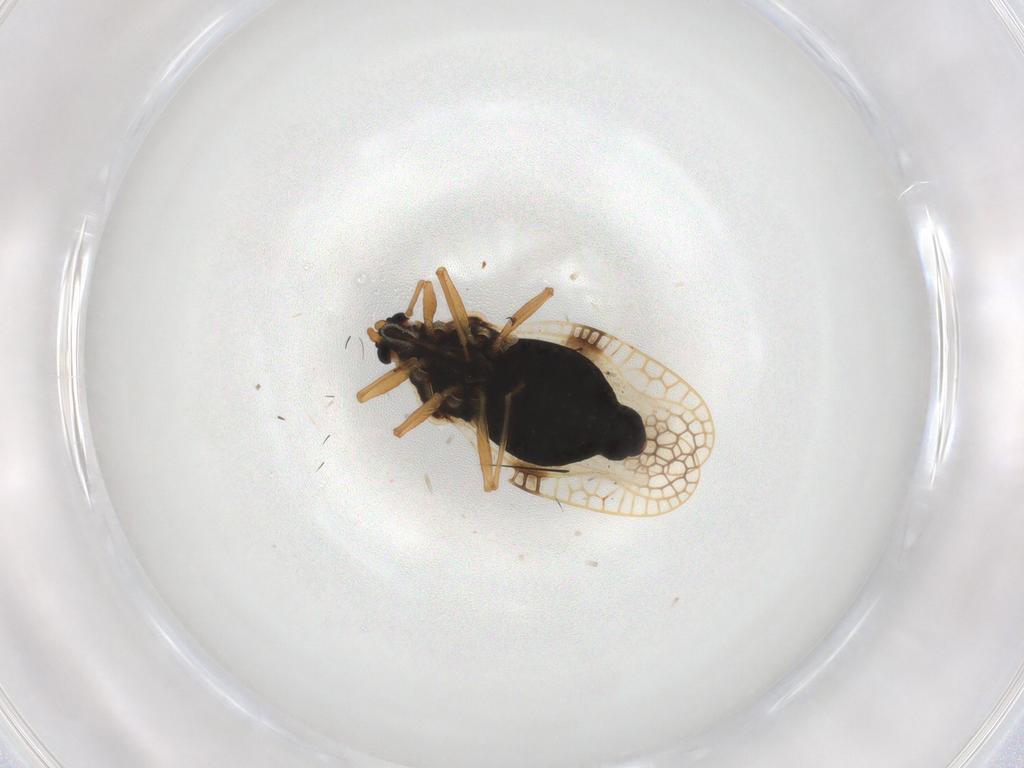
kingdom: Animalia
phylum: Arthropoda
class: Insecta
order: Hemiptera
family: Tingidae
